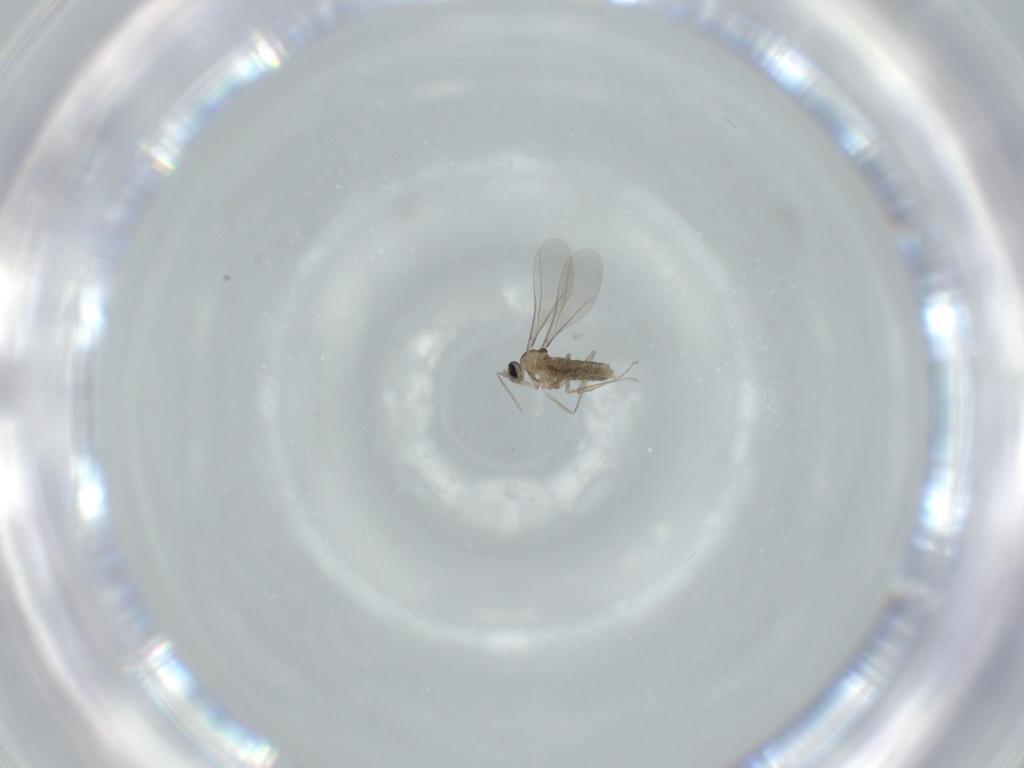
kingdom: Animalia
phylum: Arthropoda
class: Insecta
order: Diptera
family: Cecidomyiidae
